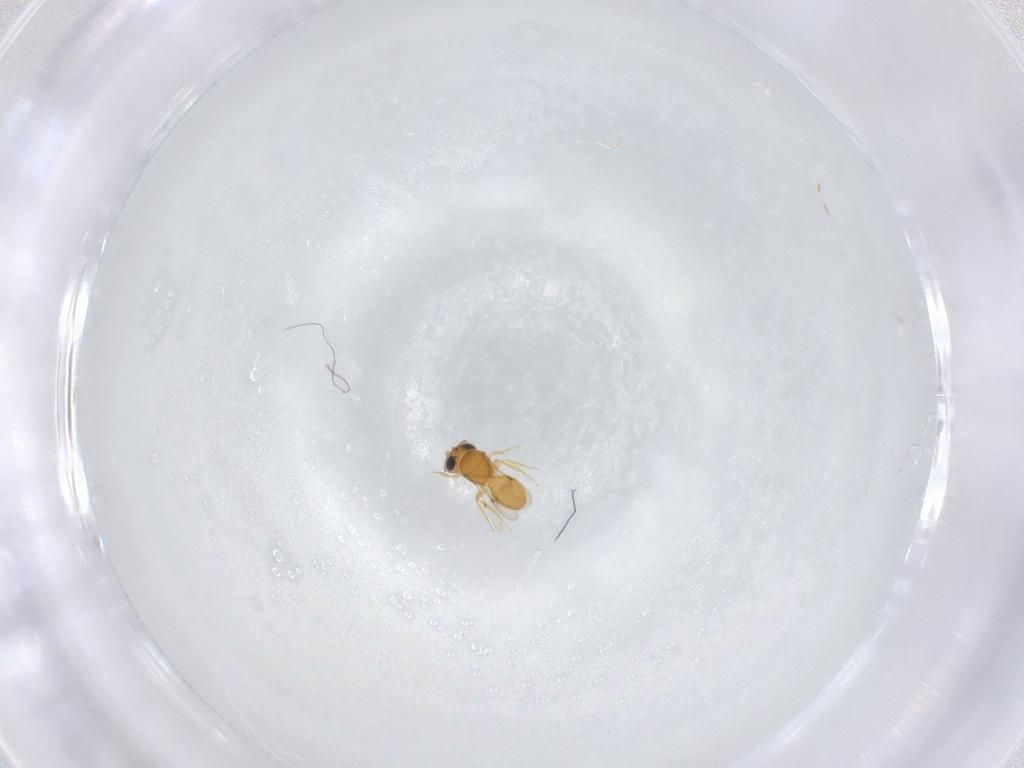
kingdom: Animalia
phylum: Arthropoda
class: Insecta
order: Hymenoptera
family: Scelionidae
